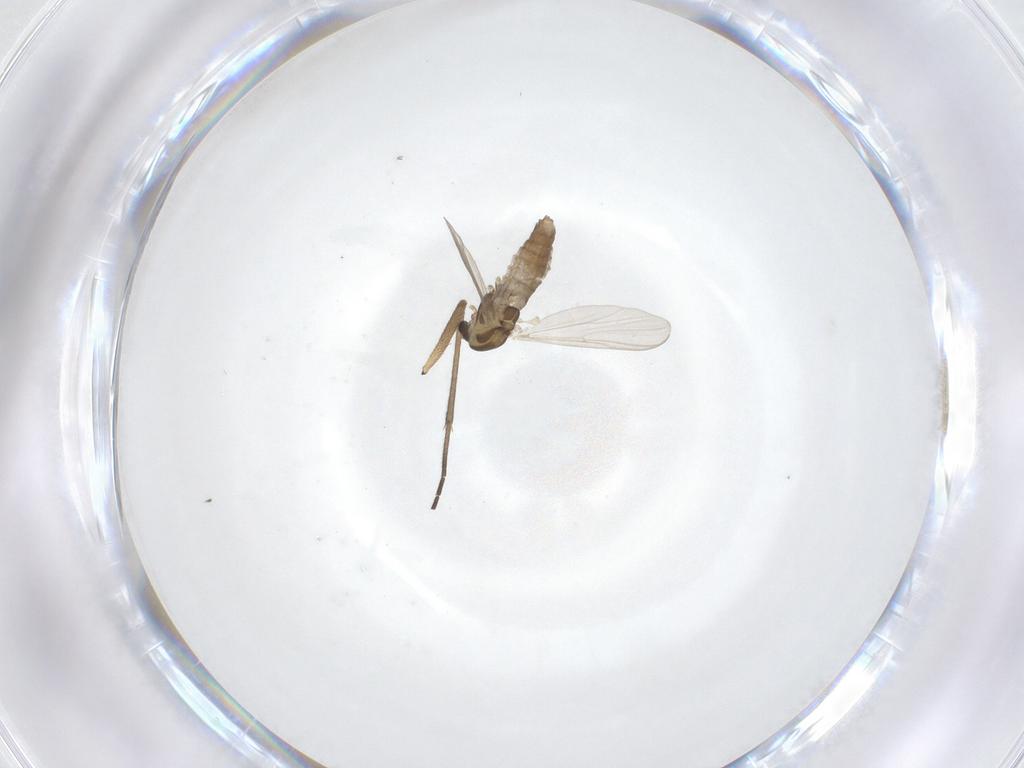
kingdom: Animalia
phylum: Arthropoda
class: Insecta
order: Diptera
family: Chironomidae
